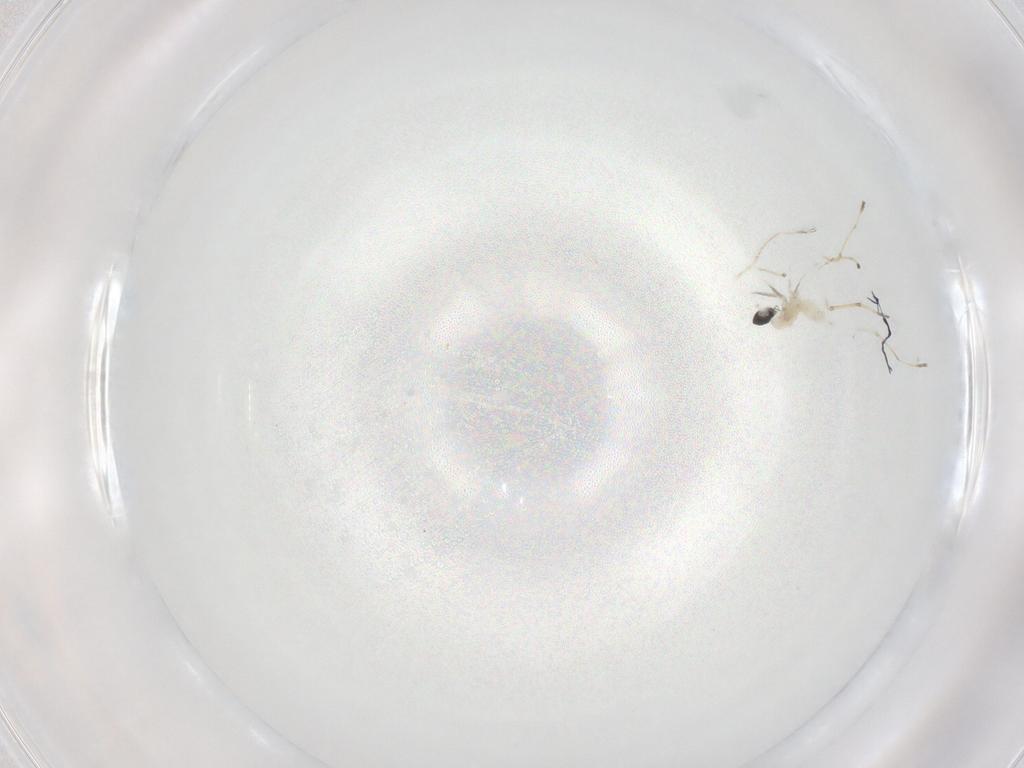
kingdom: Animalia
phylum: Arthropoda
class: Insecta
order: Diptera
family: Cecidomyiidae
